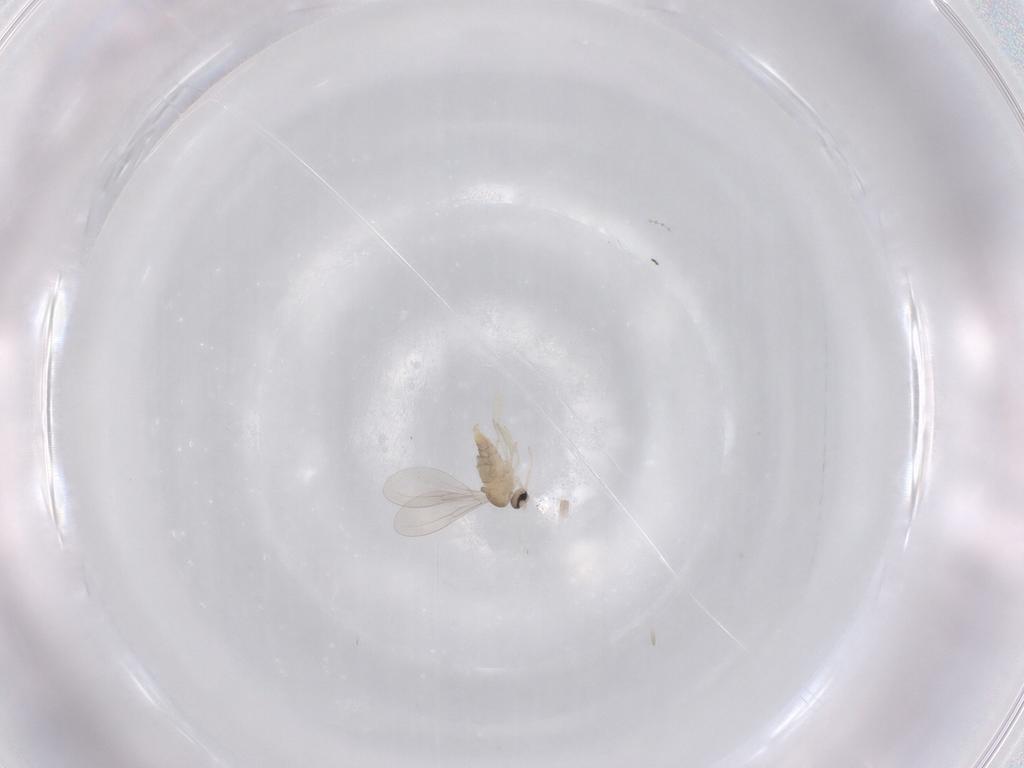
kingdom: Animalia
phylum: Arthropoda
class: Insecta
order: Diptera
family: Cecidomyiidae
